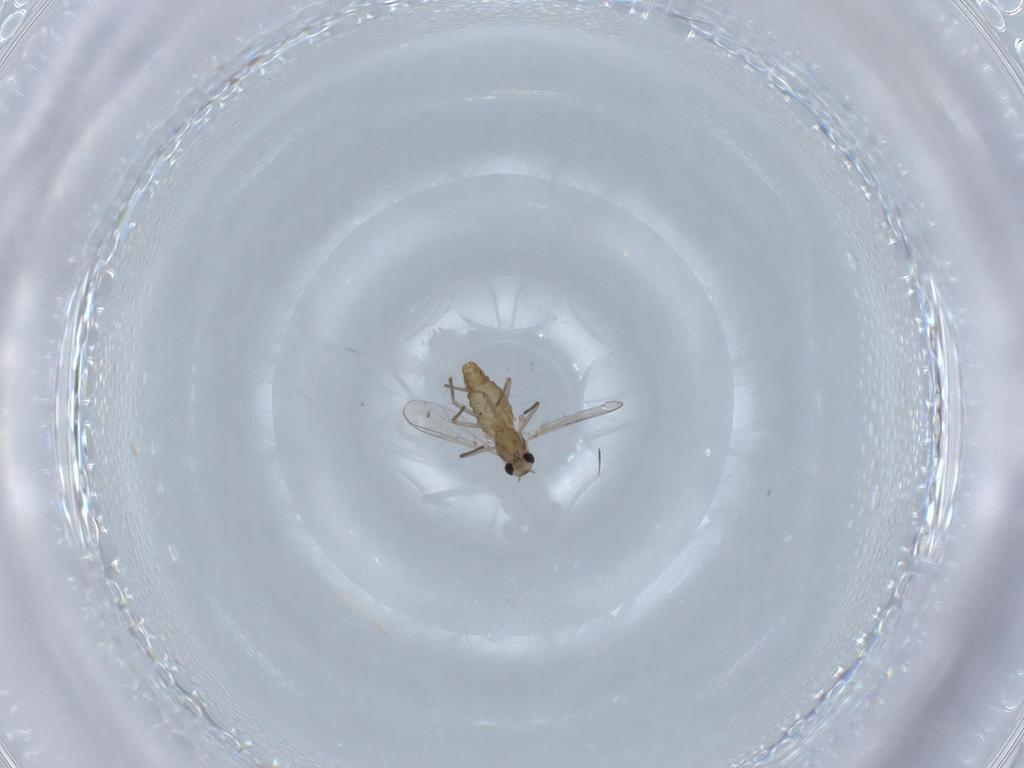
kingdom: Animalia
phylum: Arthropoda
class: Insecta
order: Diptera
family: Chironomidae
